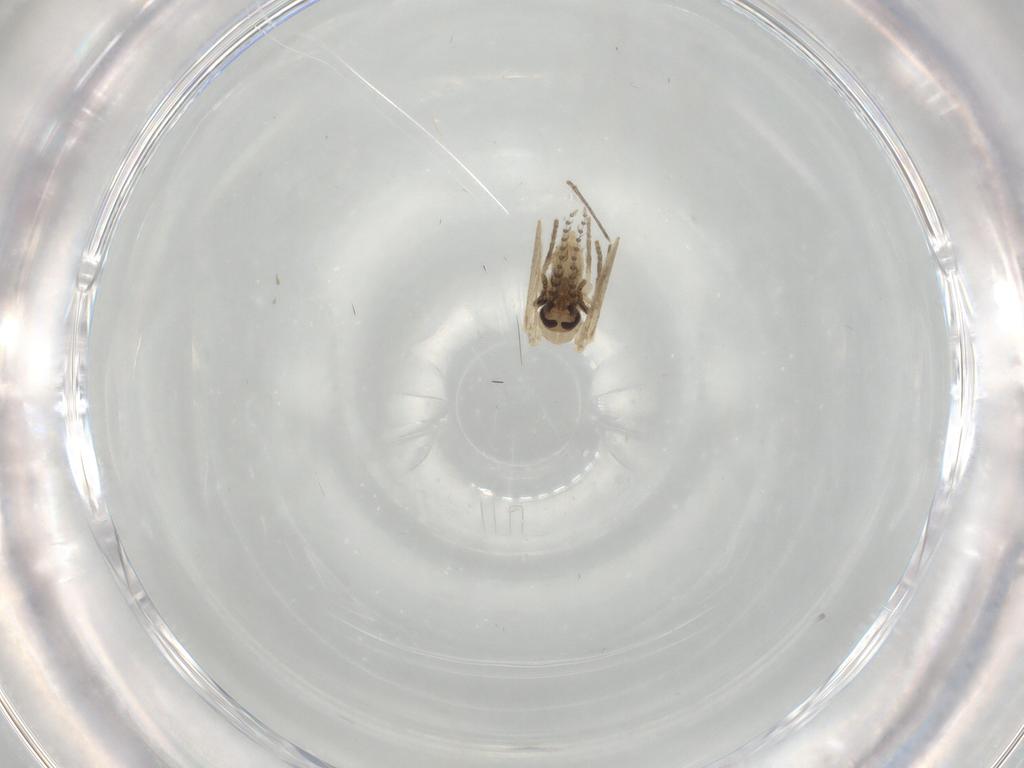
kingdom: Animalia
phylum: Arthropoda
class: Insecta
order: Diptera
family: Psychodidae
